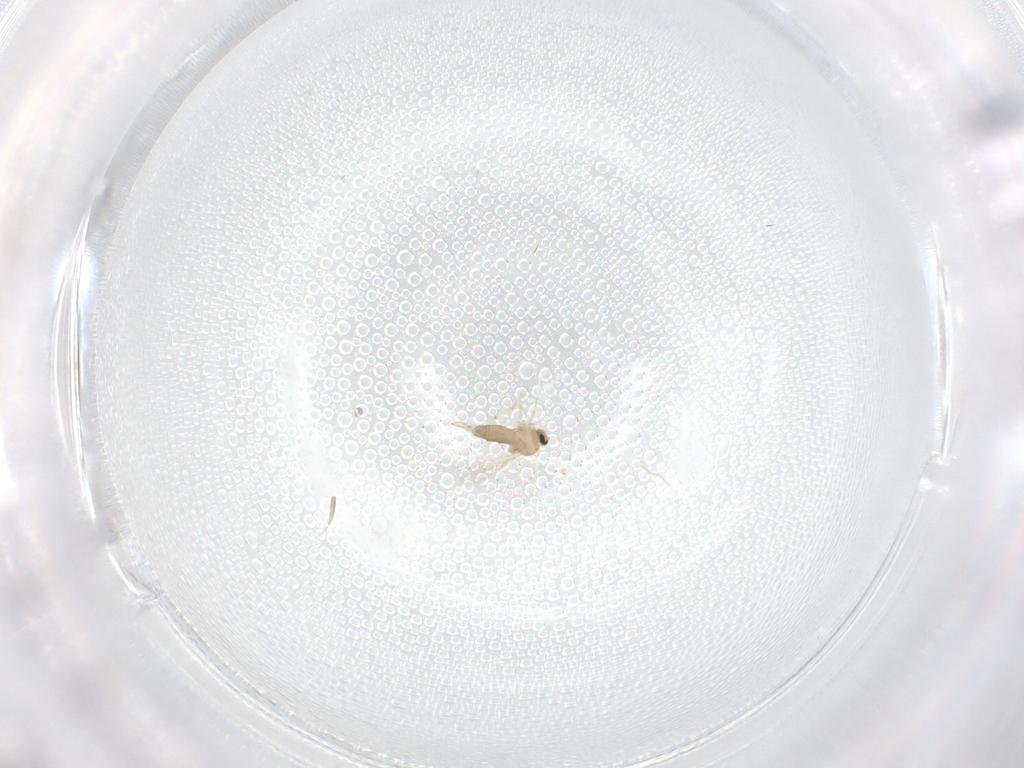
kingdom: Animalia
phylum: Arthropoda
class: Insecta
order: Diptera
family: Ceratopogonidae
